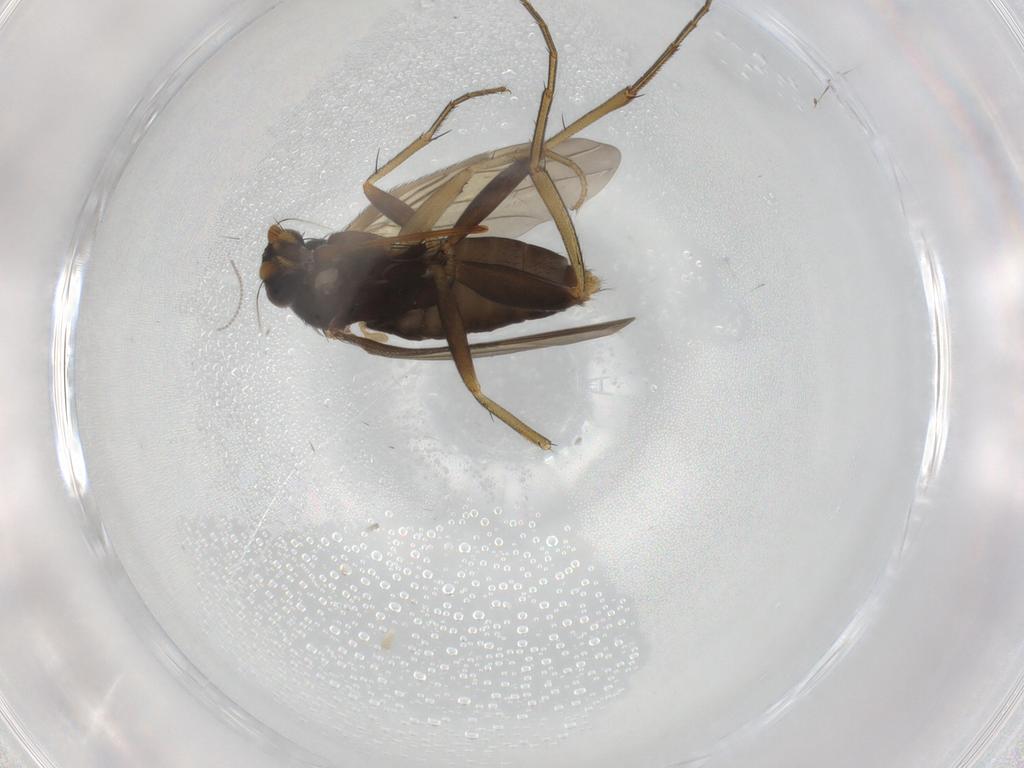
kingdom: Animalia
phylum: Arthropoda
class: Insecta
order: Diptera
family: Phoridae
